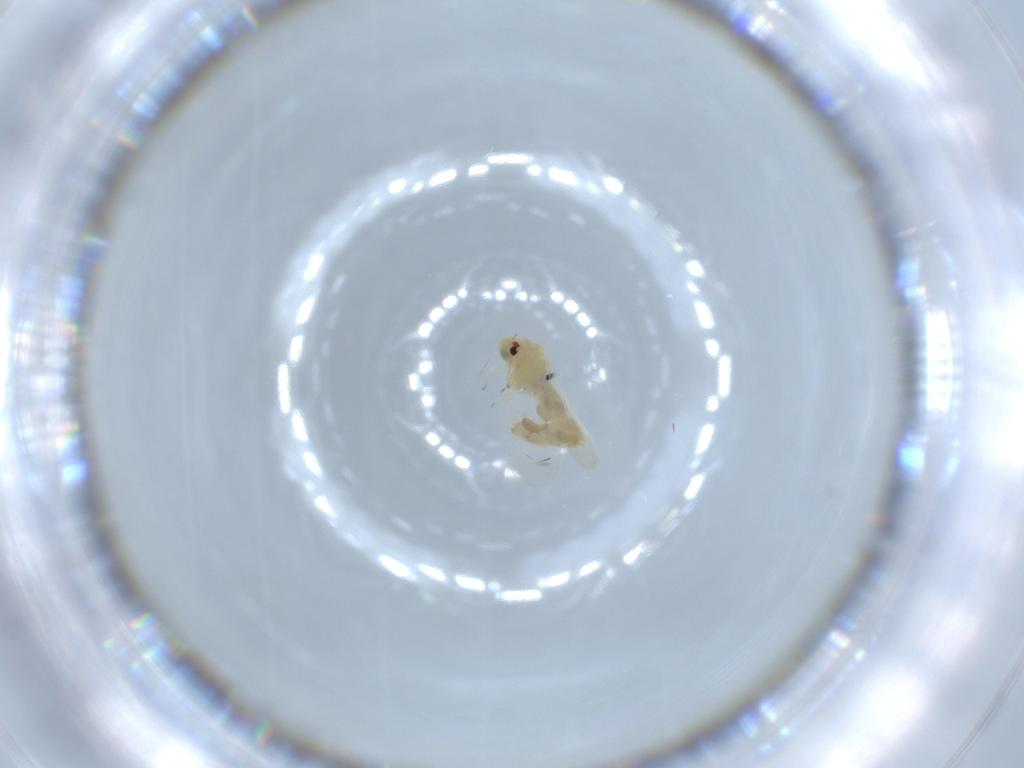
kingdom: Animalia
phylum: Arthropoda
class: Insecta
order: Hemiptera
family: Aleyrodidae
